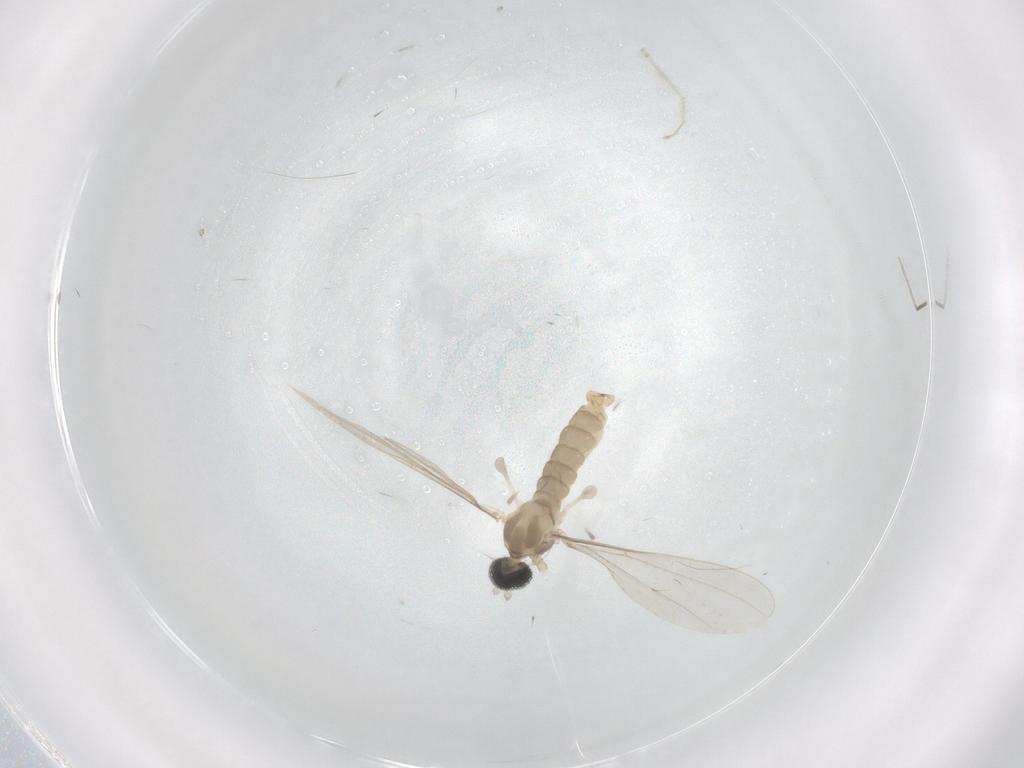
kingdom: Animalia
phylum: Arthropoda
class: Insecta
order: Diptera
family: Cecidomyiidae
